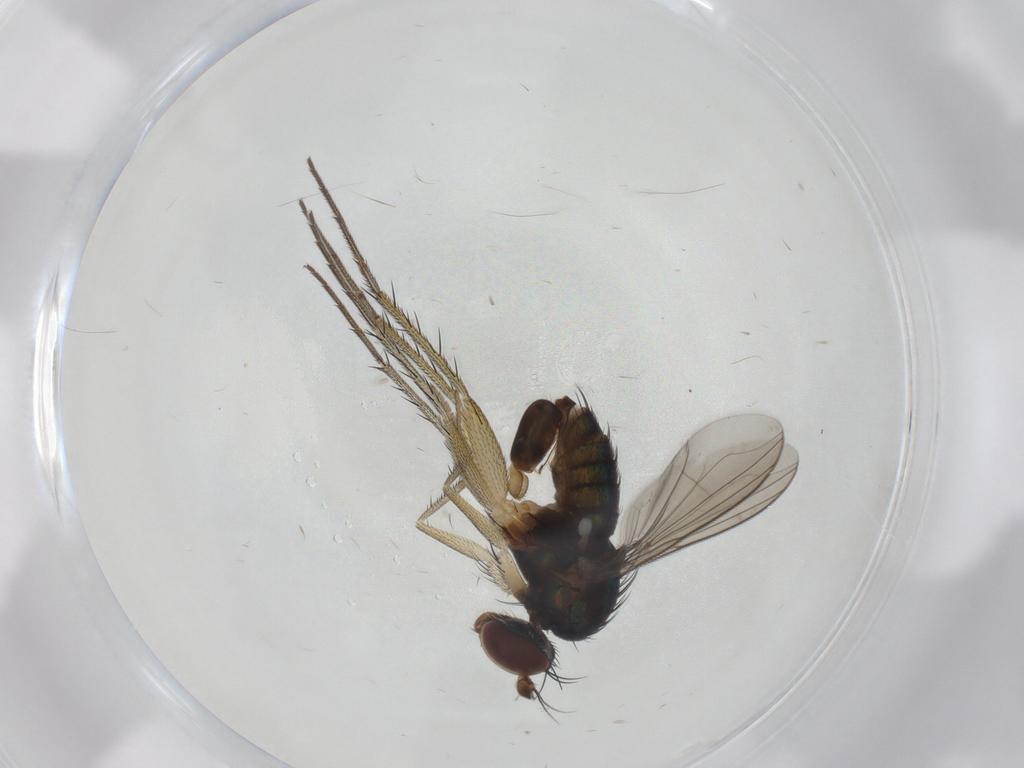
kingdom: Animalia
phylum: Arthropoda
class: Insecta
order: Diptera
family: Dolichopodidae
